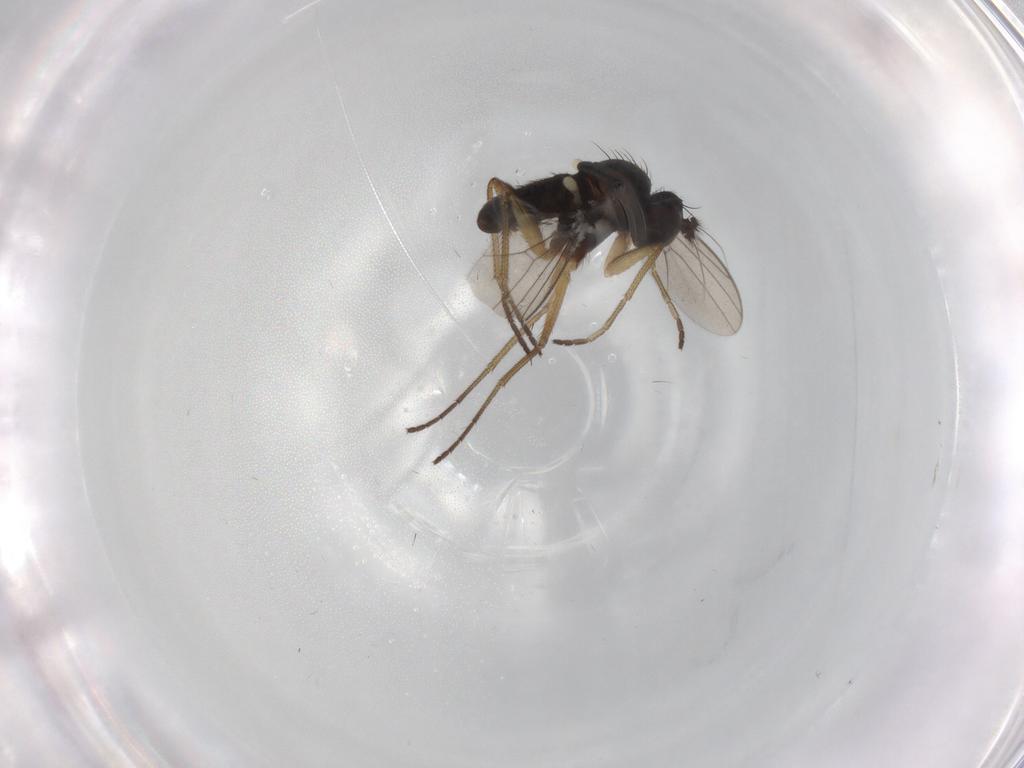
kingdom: Animalia
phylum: Arthropoda
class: Insecta
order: Diptera
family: Dolichopodidae
